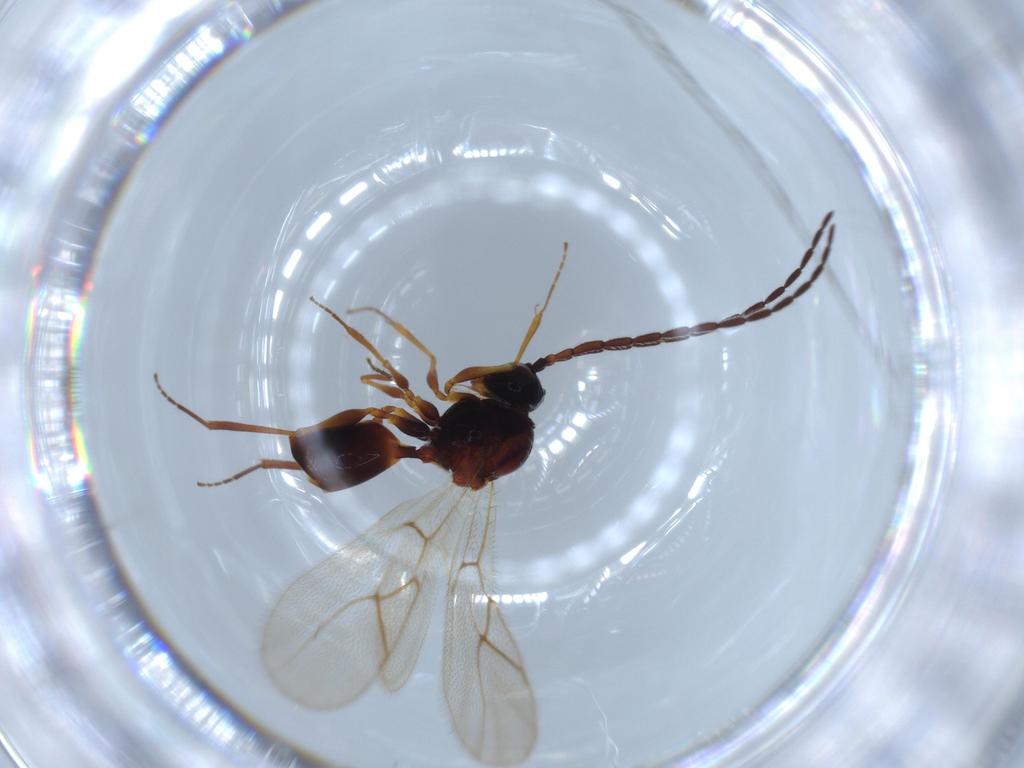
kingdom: Animalia
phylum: Arthropoda
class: Insecta
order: Hymenoptera
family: Figitidae
